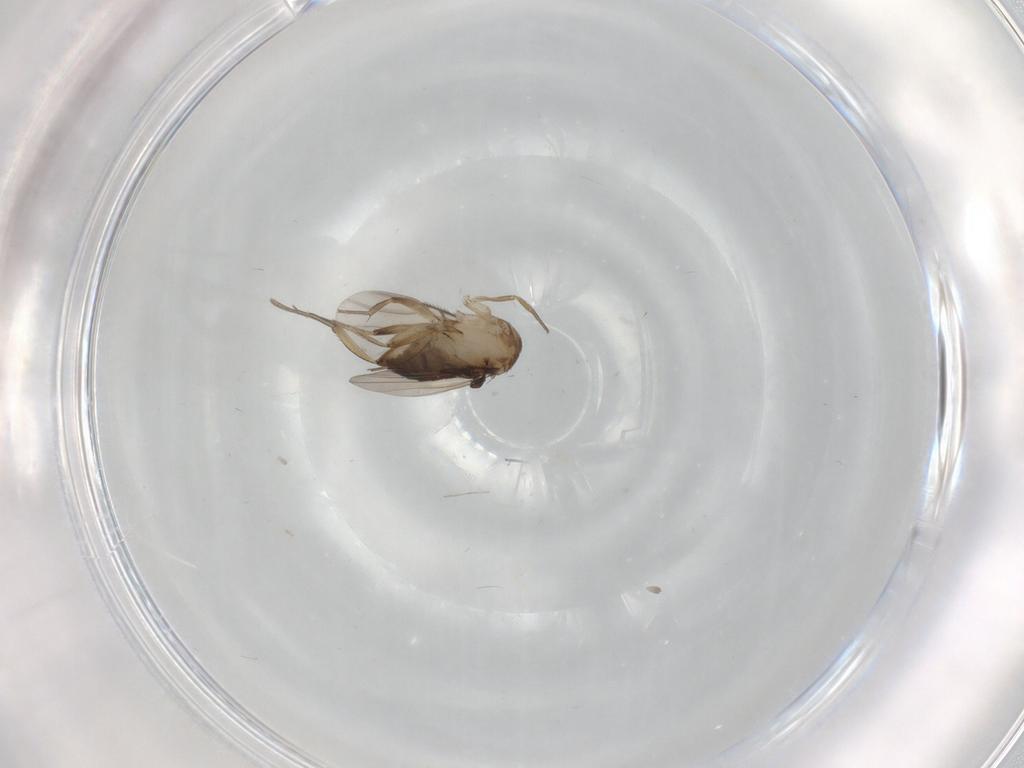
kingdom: Animalia
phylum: Arthropoda
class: Insecta
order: Diptera
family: Phoridae
